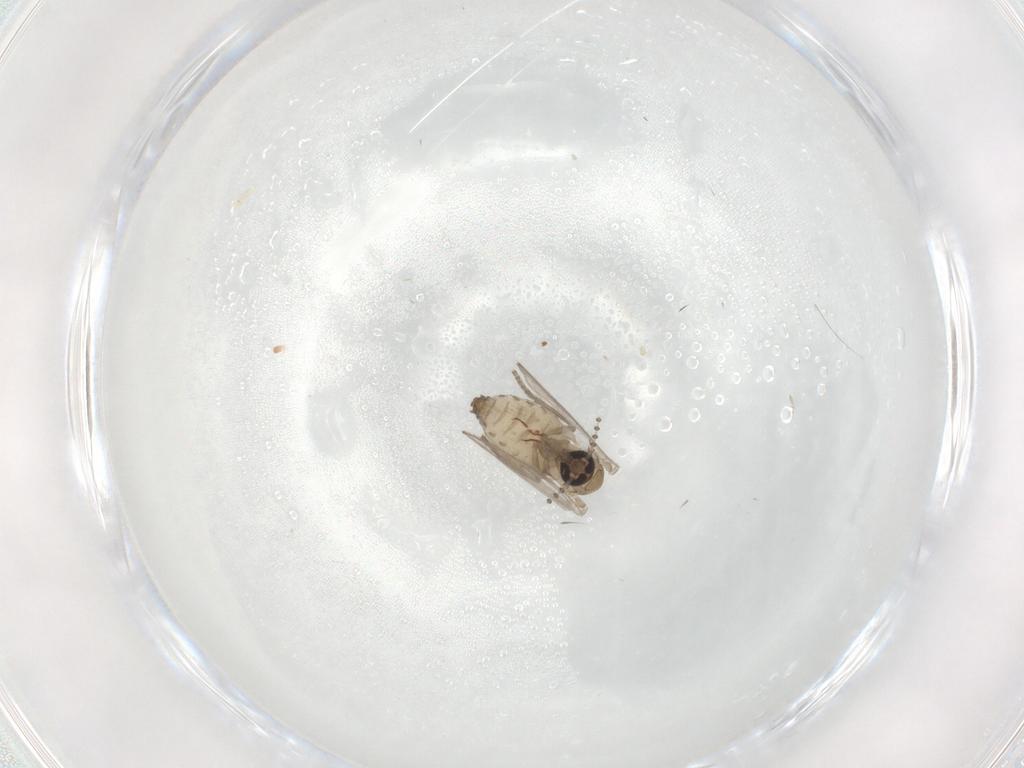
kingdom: Animalia
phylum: Arthropoda
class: Insecta
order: Diptera
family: Psychodidae
